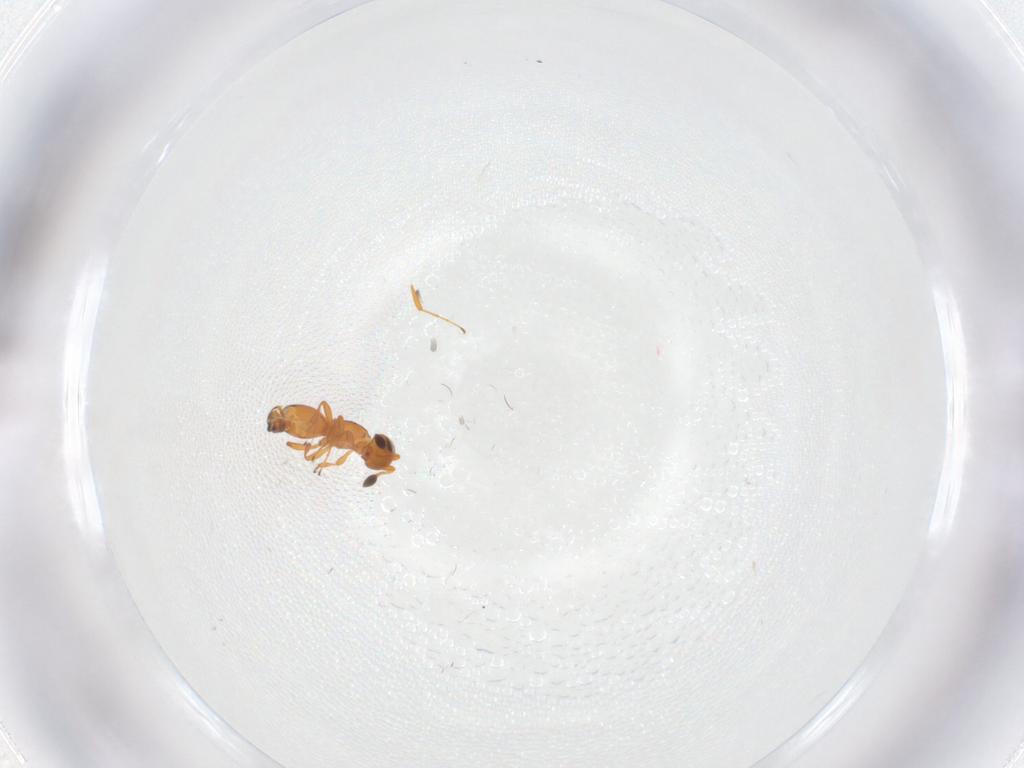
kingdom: Animalia
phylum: Arthropoda
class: Insecta
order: Hymenoptera
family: Platygastridae
